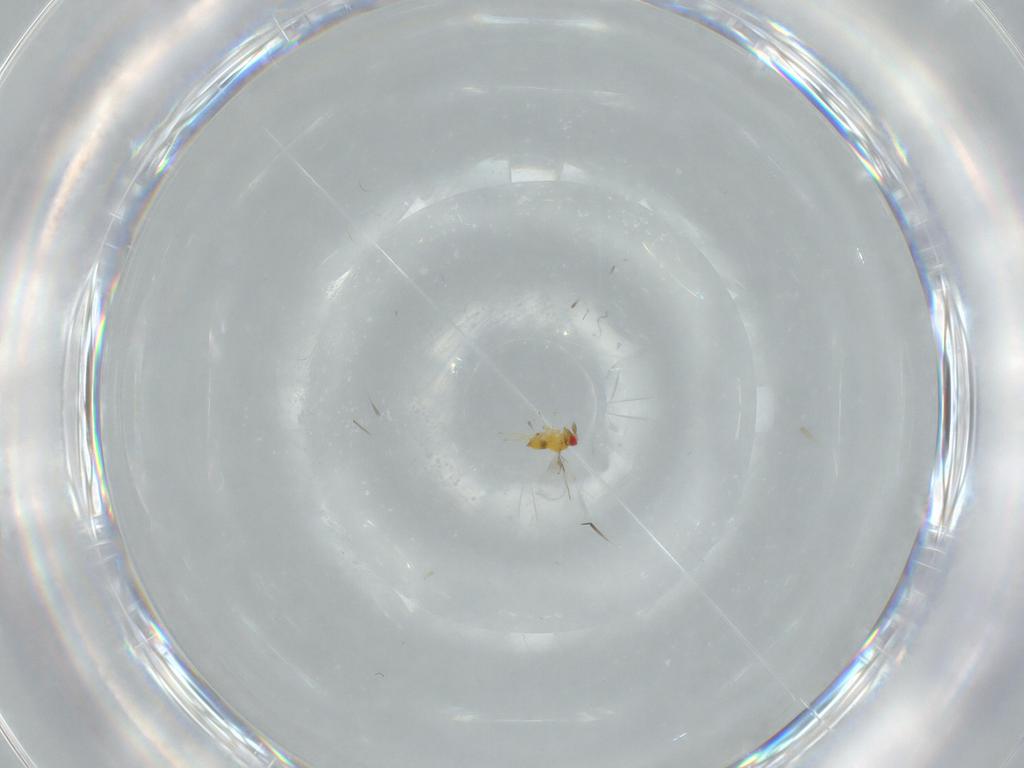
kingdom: Animalia
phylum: Arthropoda
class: Insecta
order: Hymenoptera
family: Trichogrammatidae
